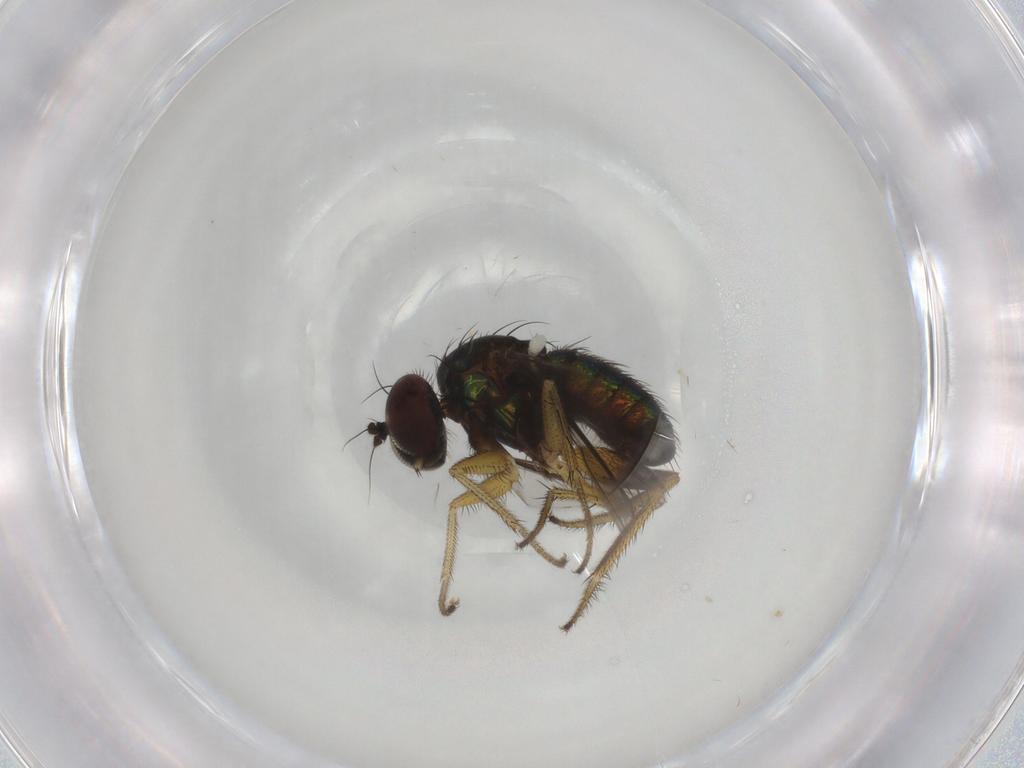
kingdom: Animalia
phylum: Arthropoda
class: Insecta
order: Diptera
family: Dolichopodidae
